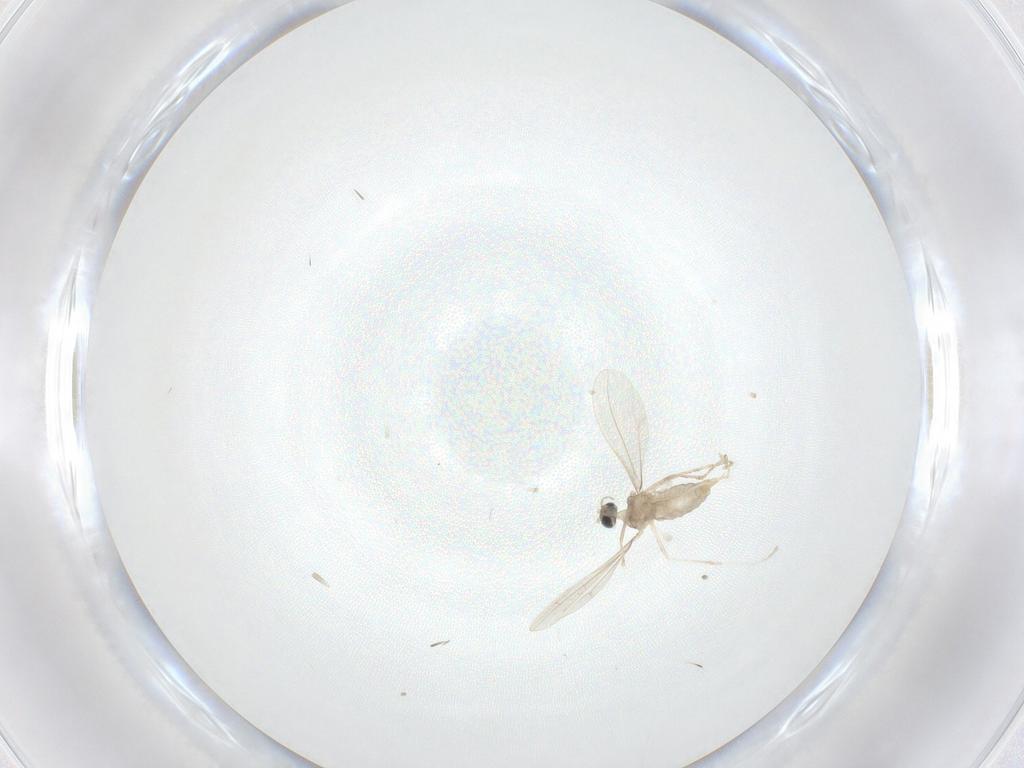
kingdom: Animalia
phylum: Arthropoda
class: Insecta
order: Diptera
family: Cecidomyiidae
